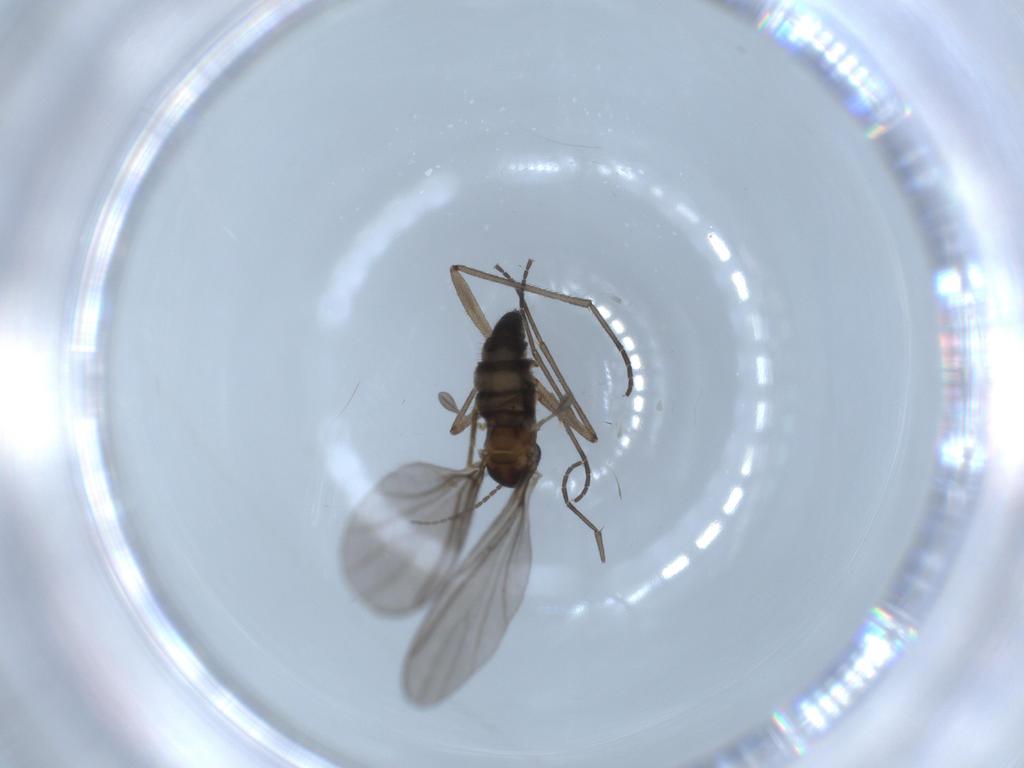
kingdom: Animalia
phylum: Arthropoda
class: Insecta
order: Diptera
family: Sciaridae
